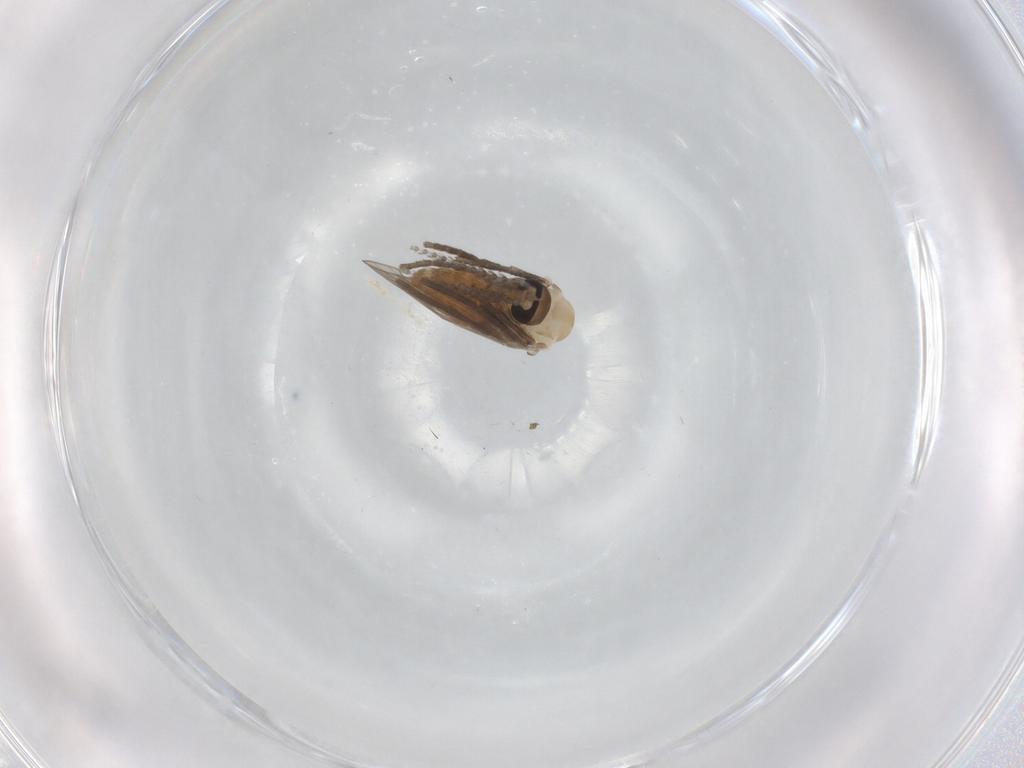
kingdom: Animalia
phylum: Arthropoda
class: Insecta
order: Diptera
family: Psychodidae
